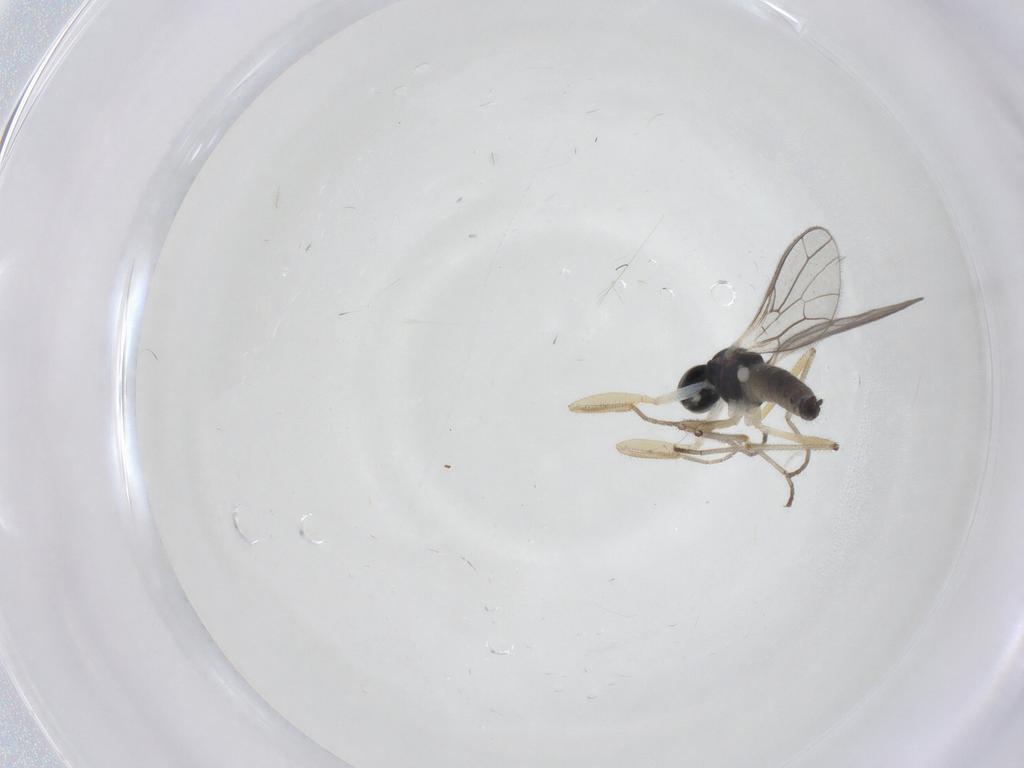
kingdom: Animalia
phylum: Arthropoda
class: Insecta
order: Diptera
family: Empididae
